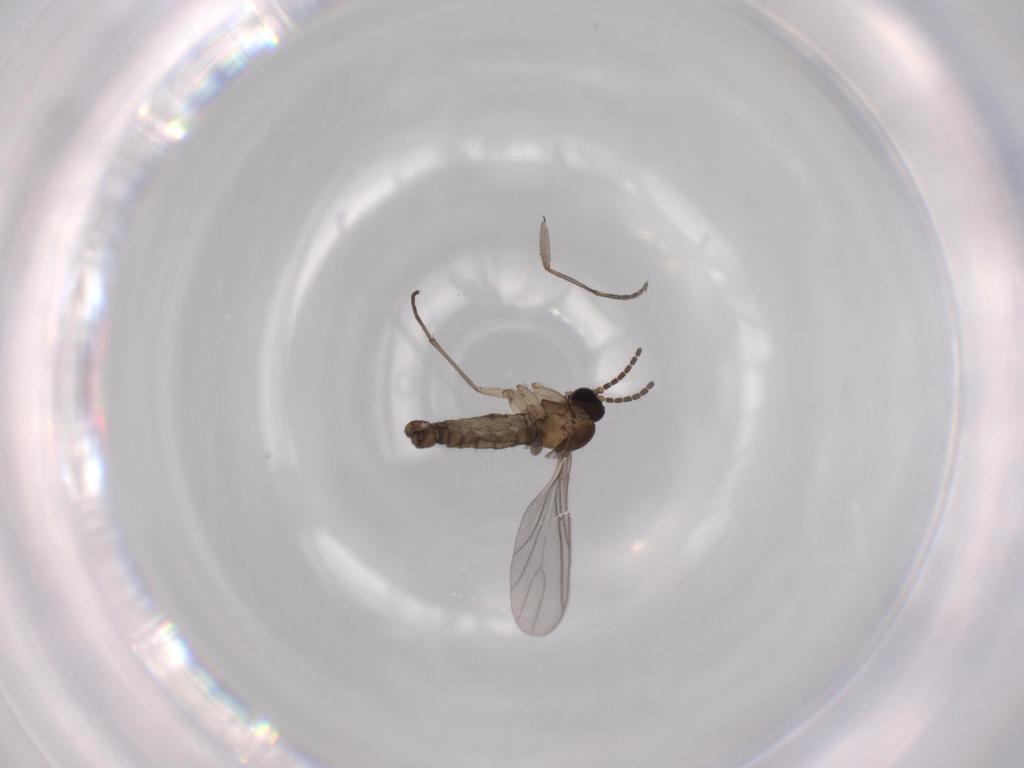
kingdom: Animalia
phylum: Arthropoda
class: Insecta
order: Diptera
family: Sciaridae
